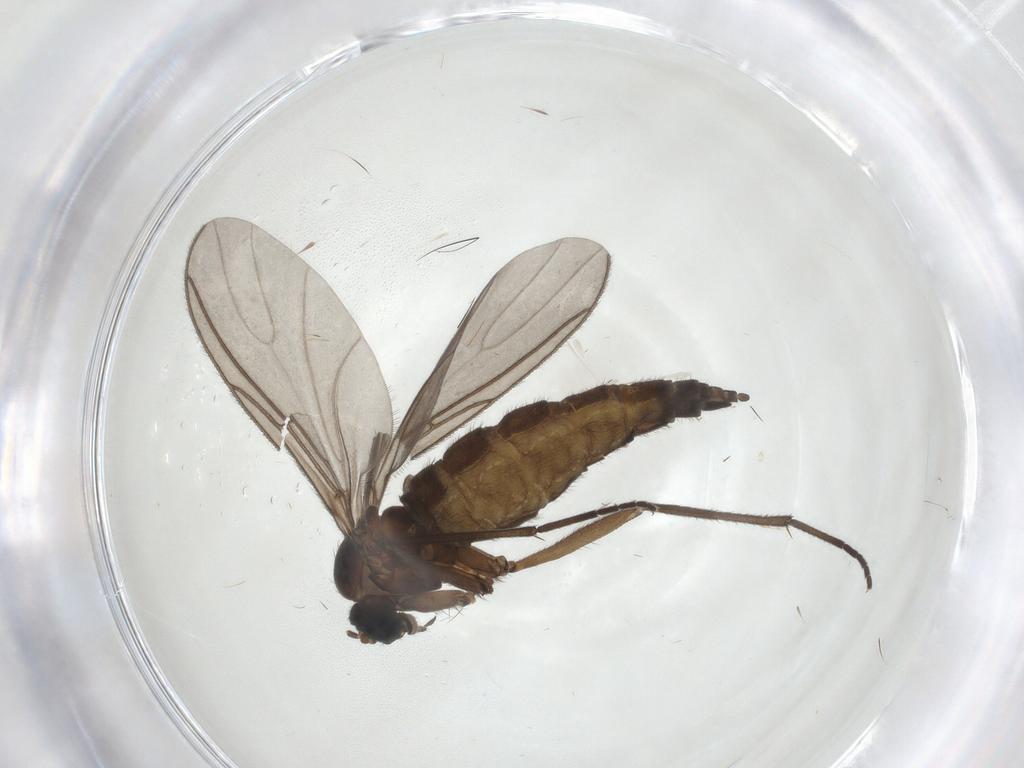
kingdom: Animalia
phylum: Arthropoda
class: Insecta
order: Diptera
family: Sciaridae
